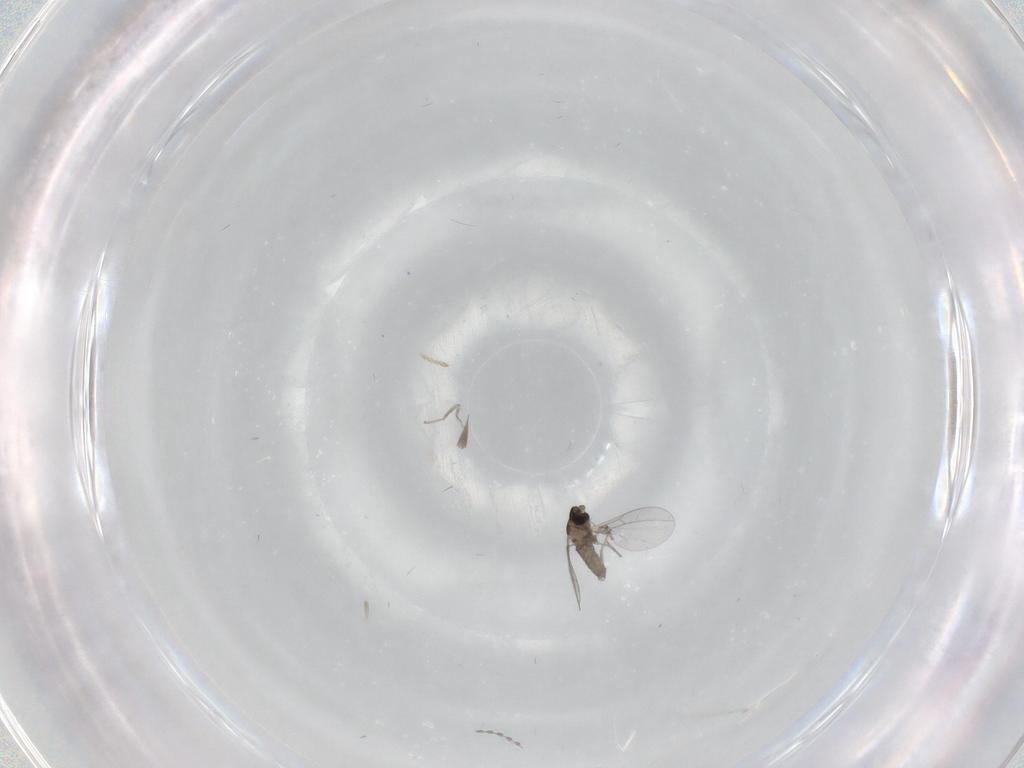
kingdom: Animalia
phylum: Arthropoda
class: Insecta
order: Diptera
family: Cecidomyiidae
